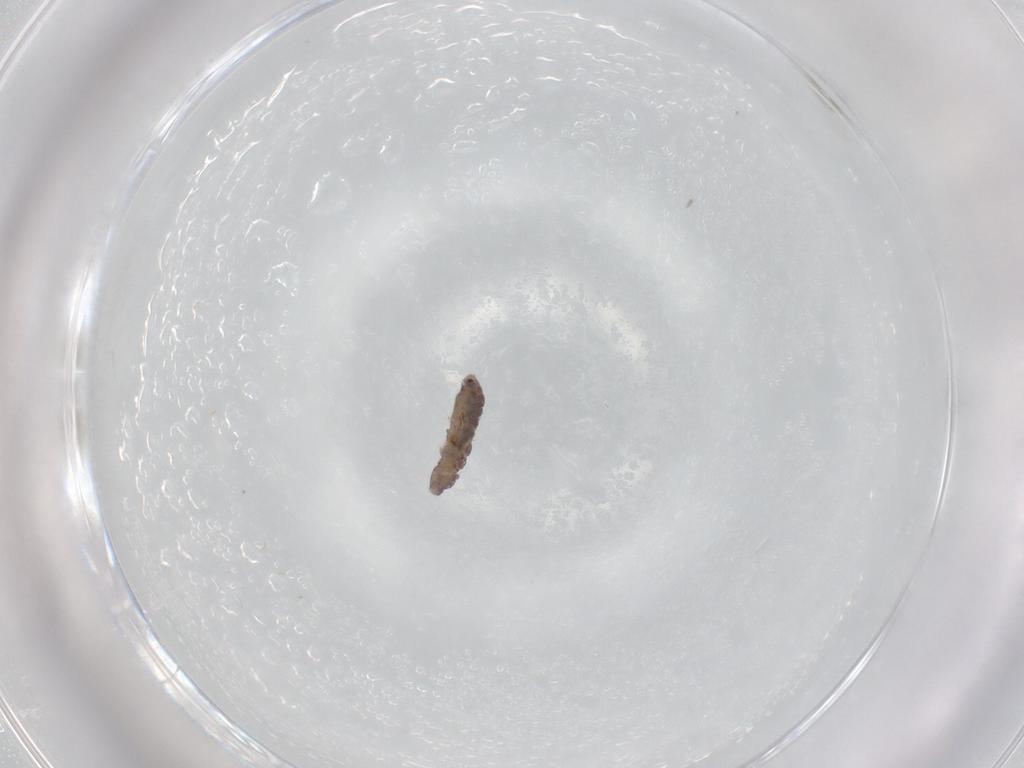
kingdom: Animalia
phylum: Arthropoda
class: Collembola
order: Poduromorpha
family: Hypogastruridae
